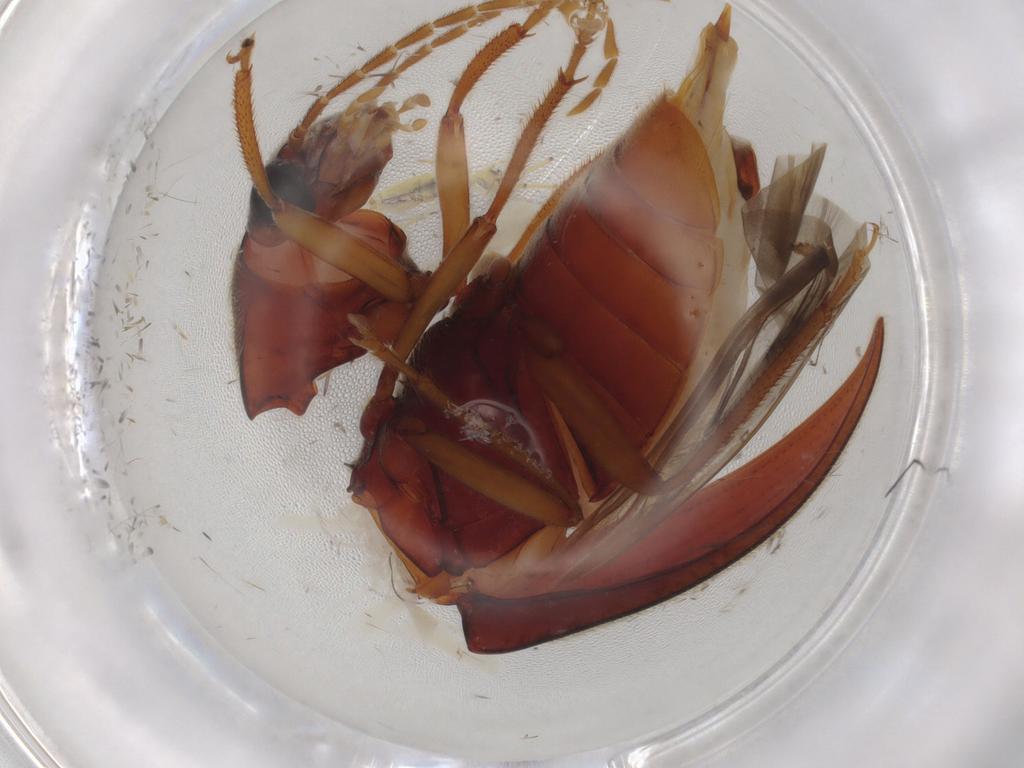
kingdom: Animalia
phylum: Arthropoda
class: Insecta
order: Coleoptera
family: Ptilodactylidae
